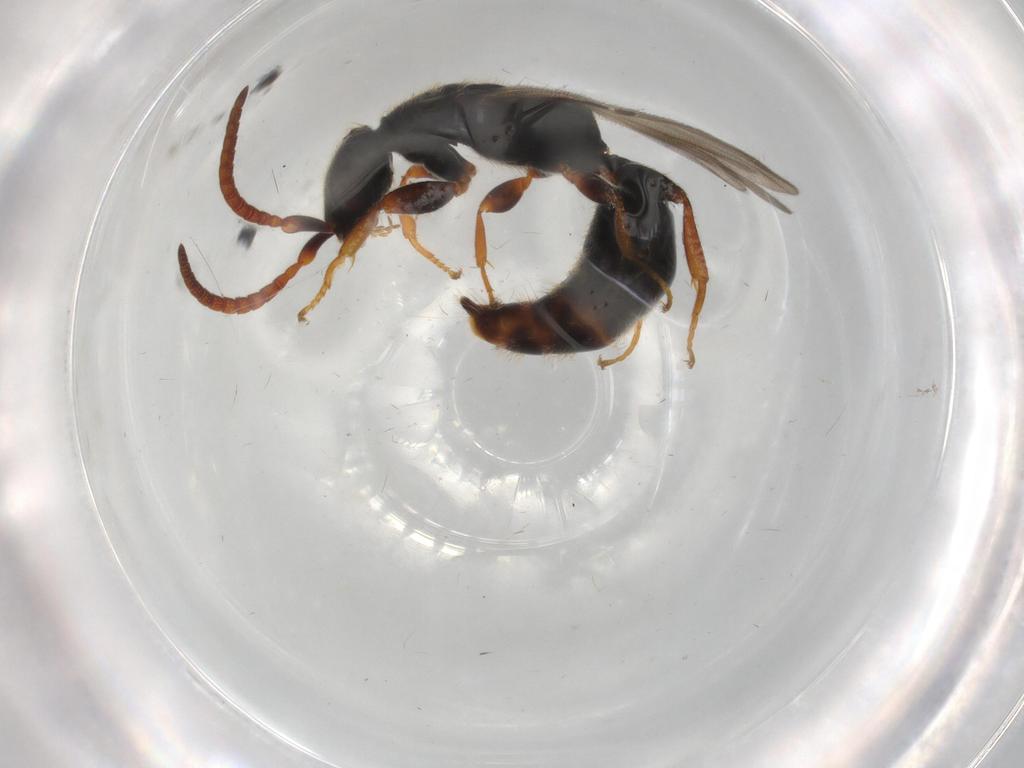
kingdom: Animalia
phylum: Arthropoda
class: Insecta
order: Hymenoptera
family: Bethylidae
